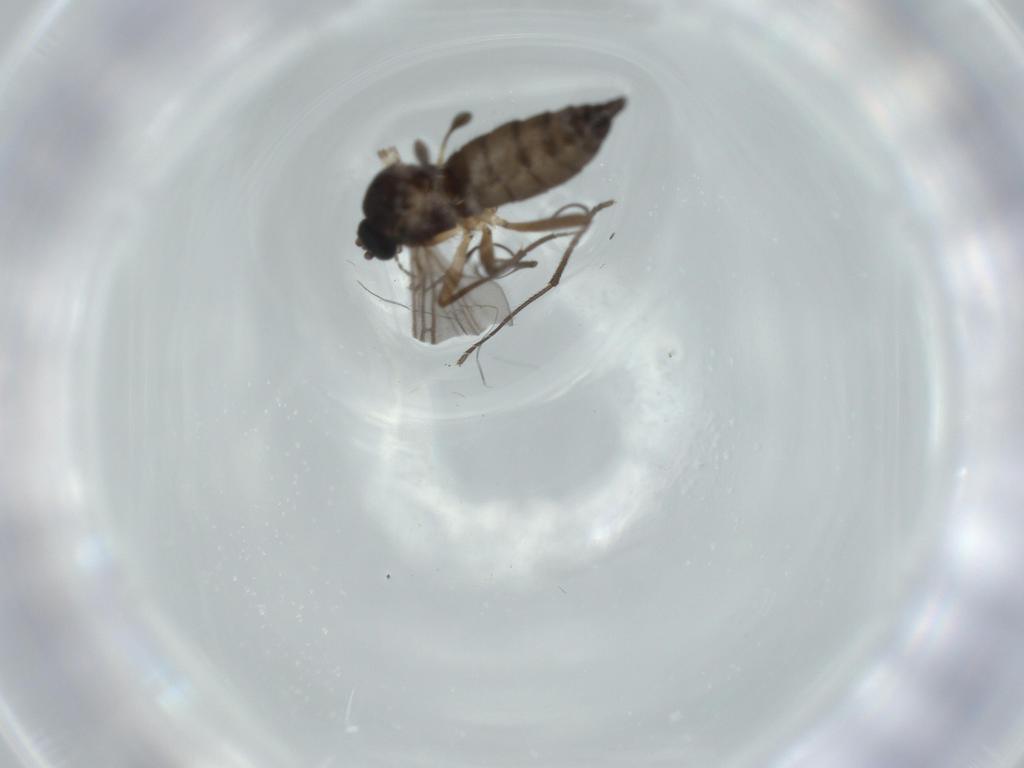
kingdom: Animalia
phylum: Arthropoda
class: Insecta
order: Diptera
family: Sciaridae
